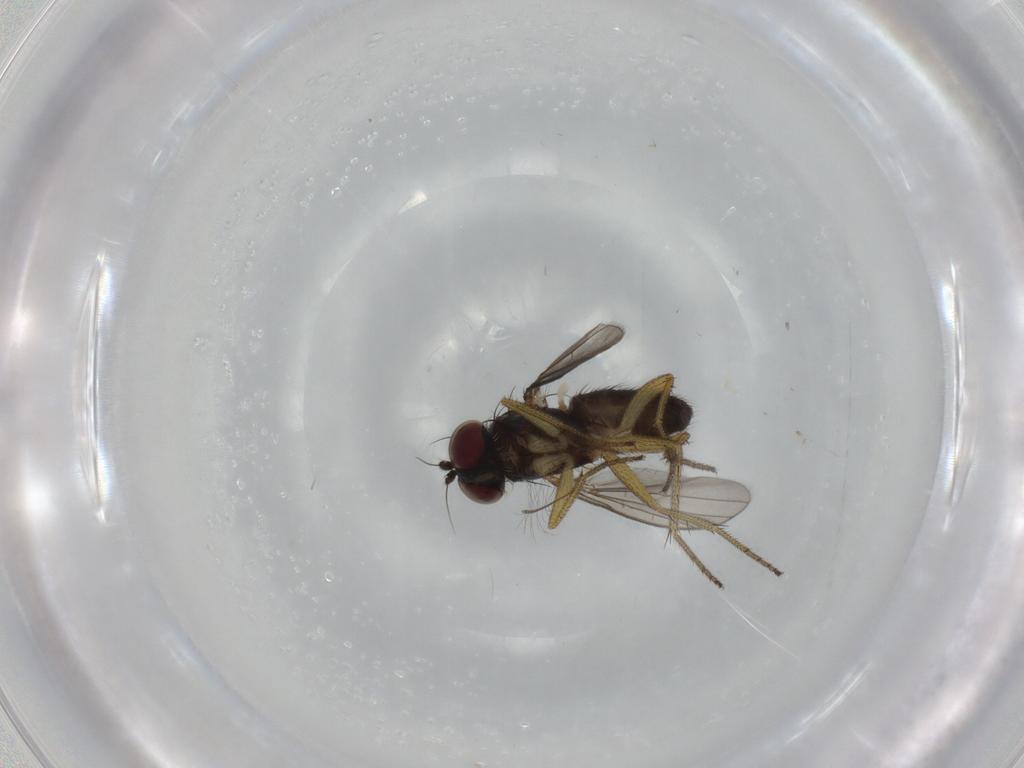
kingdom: Animalia
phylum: Arthropoda
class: Insecta
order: Diptera
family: Dolichopodidae
